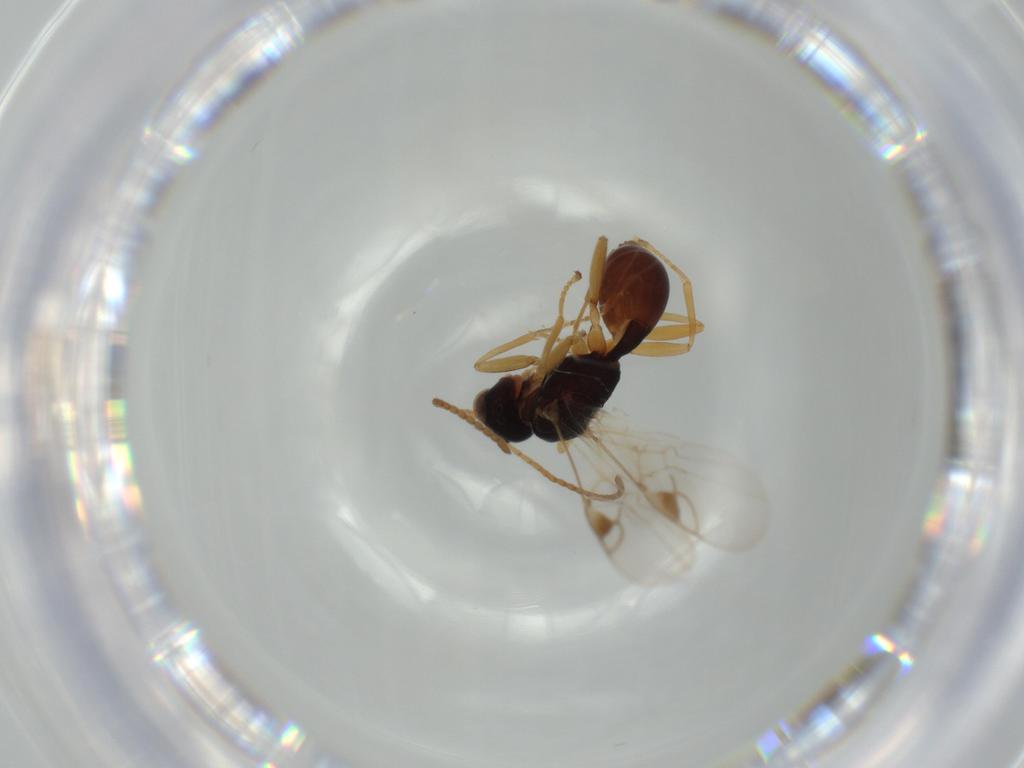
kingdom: Animalia
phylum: Arthropoda
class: Insecta
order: Hymenoptera
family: Braconidae
